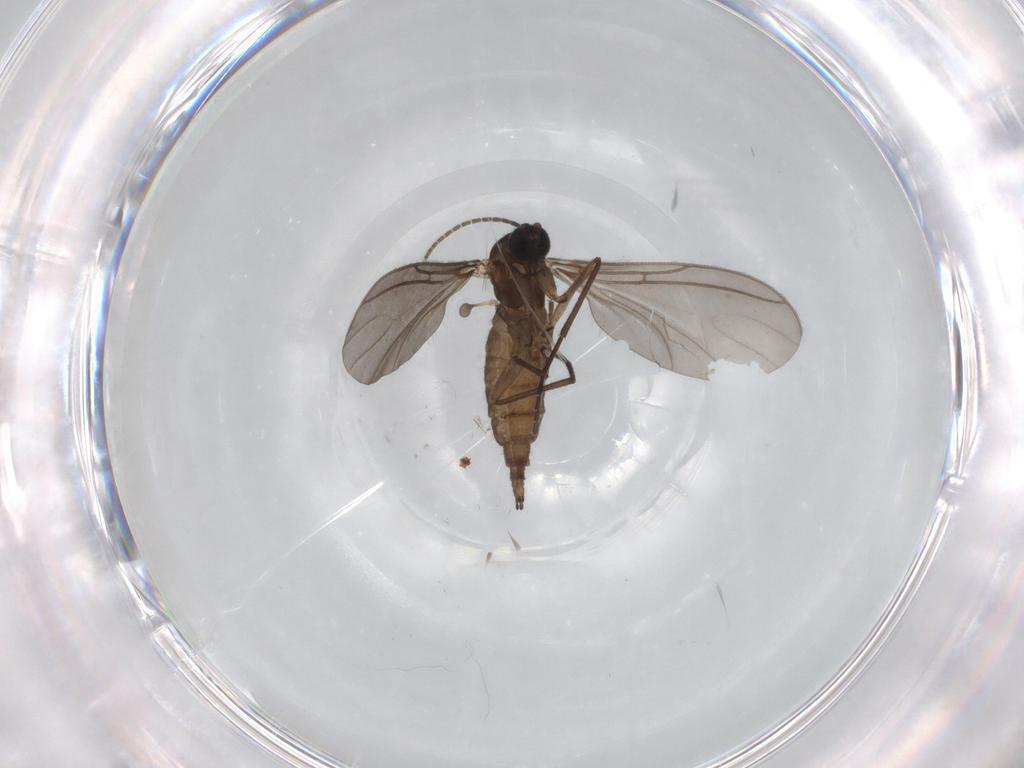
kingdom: Animalia
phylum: Arthropoda
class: Insecta
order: Diptera
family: Sciaridae
